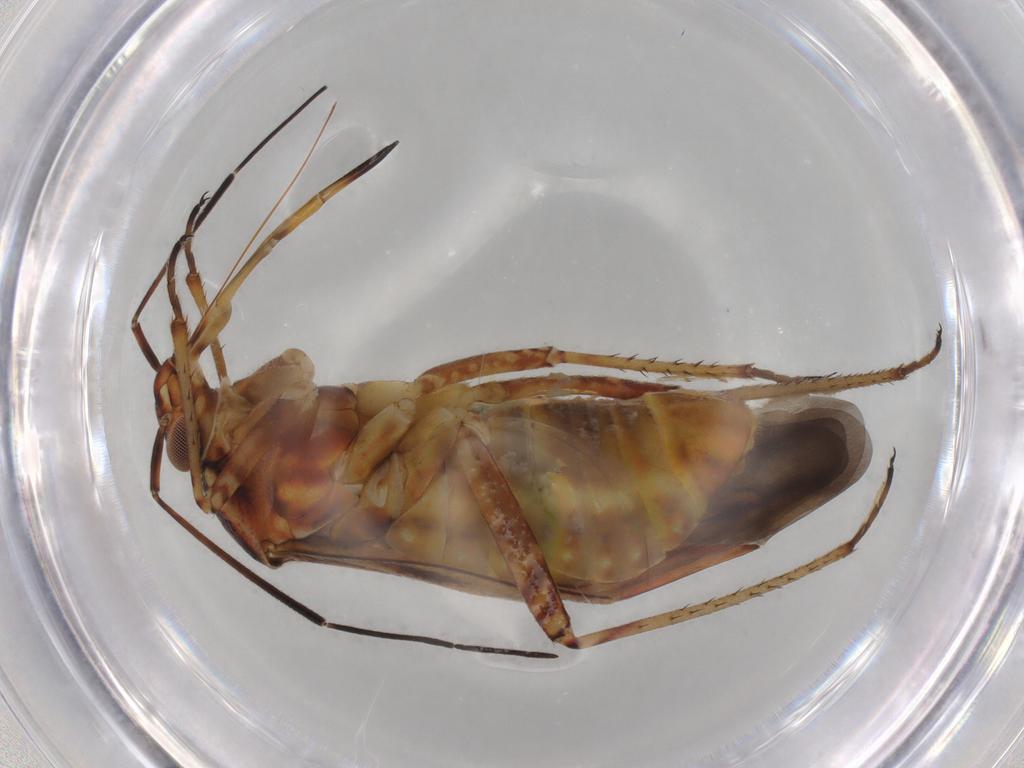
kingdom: Animalia
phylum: Arthropoda
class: Insecta
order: Hemiptera
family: Miridae
